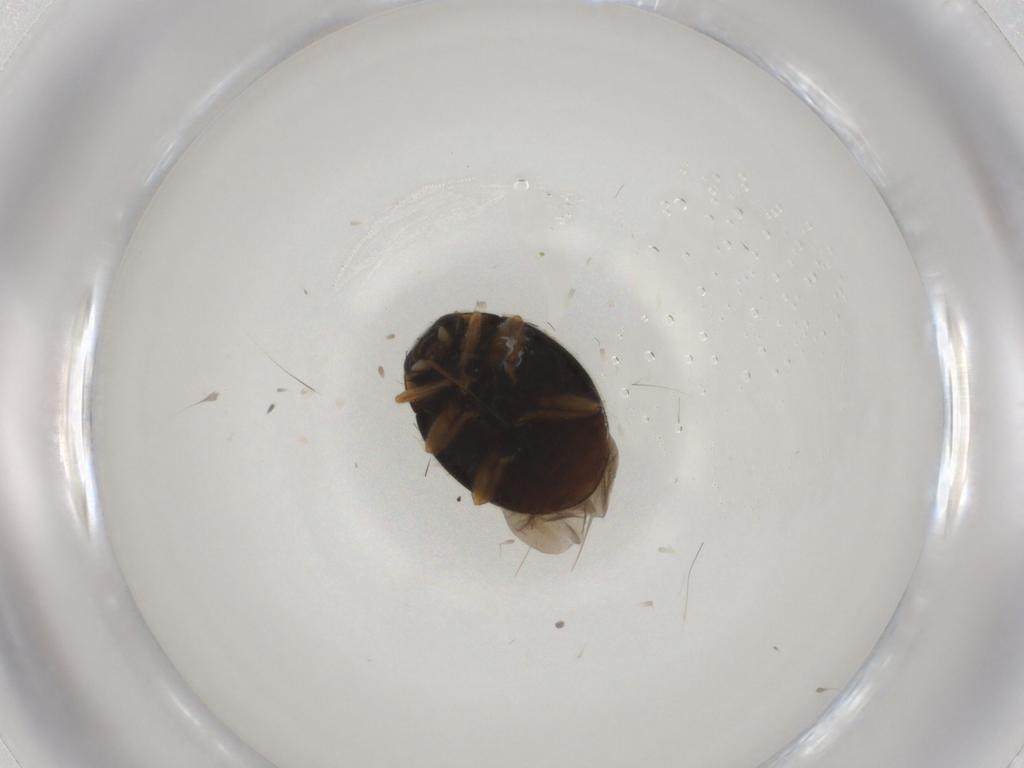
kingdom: Animalia
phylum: Arthropoda
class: Insecta
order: Coleoptera
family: Ptilodactylidae
